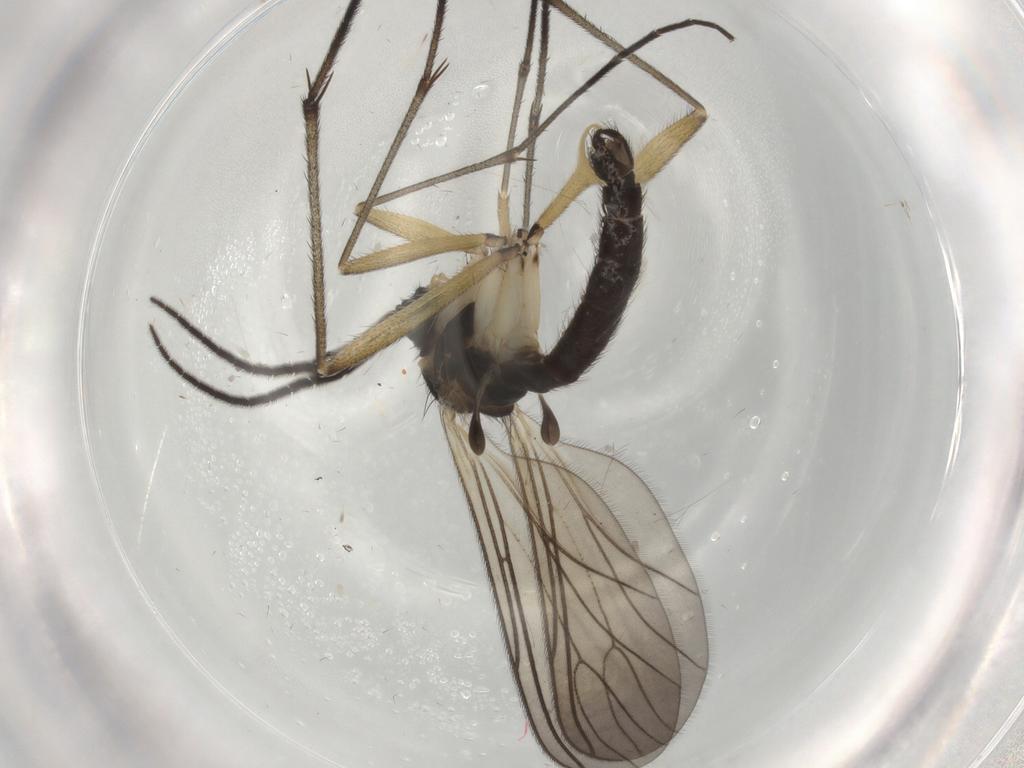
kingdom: Animalia
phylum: Arthropoda
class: Insecta
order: Diptera
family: Sciaridae
